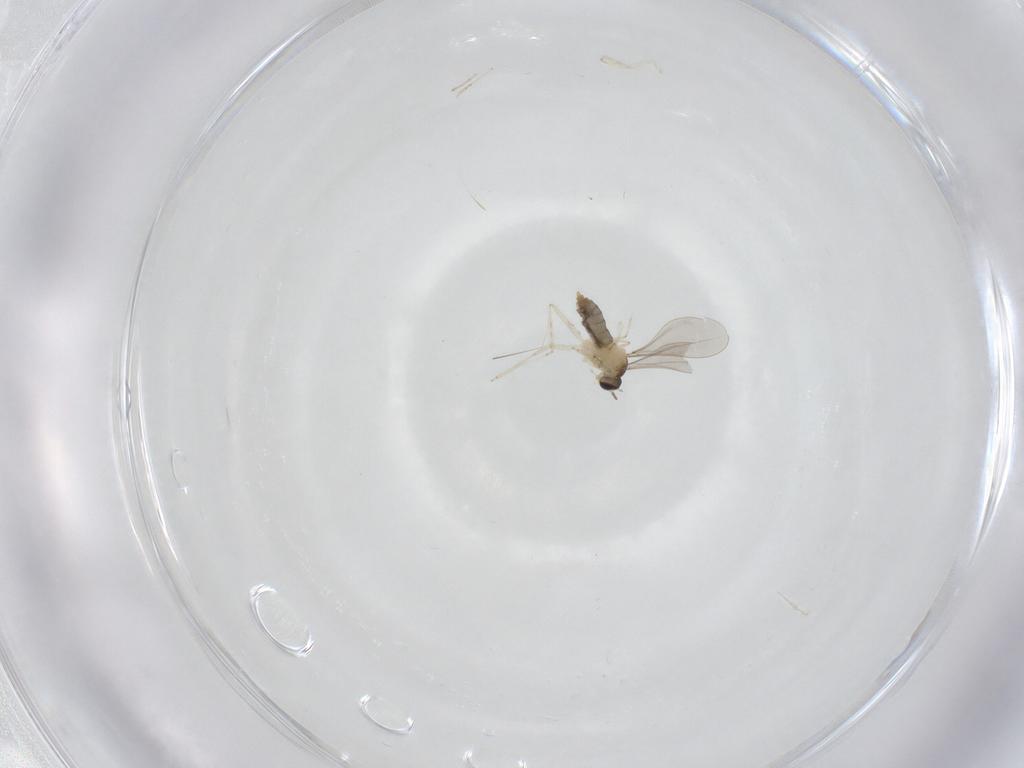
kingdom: Animalia
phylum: Arthropoda
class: Insecta
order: Diptera
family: Cecidomyiidae
